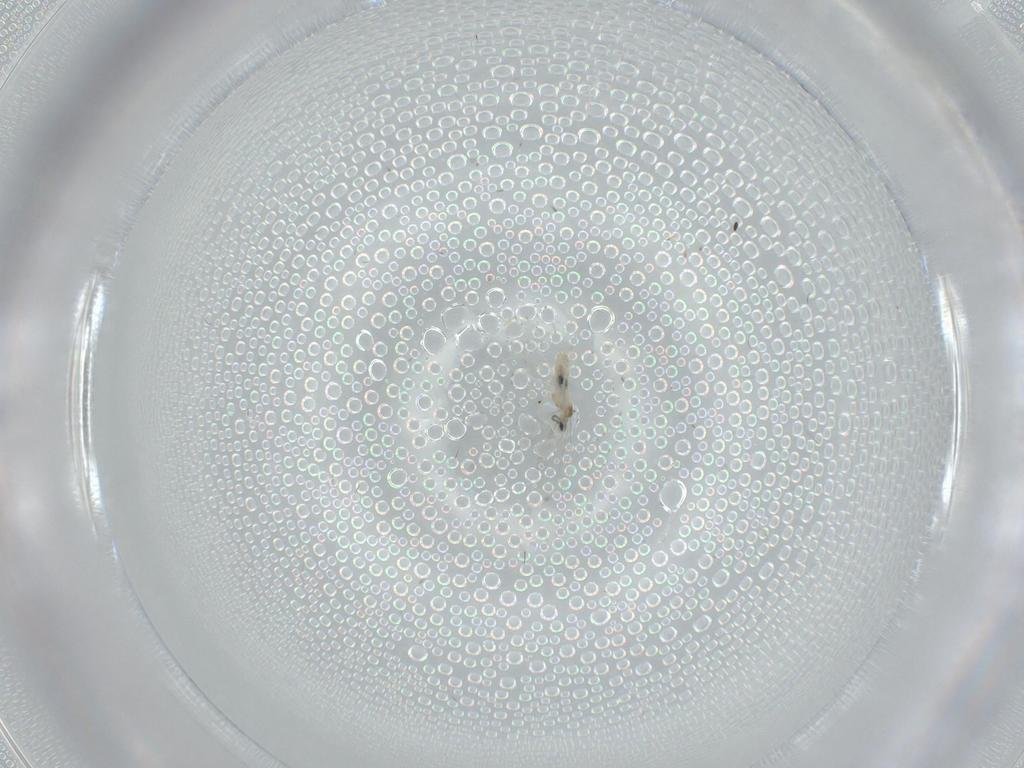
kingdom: Animalia
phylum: Arthropoda
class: Insecta
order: Diptera
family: Cecidomyiidae
